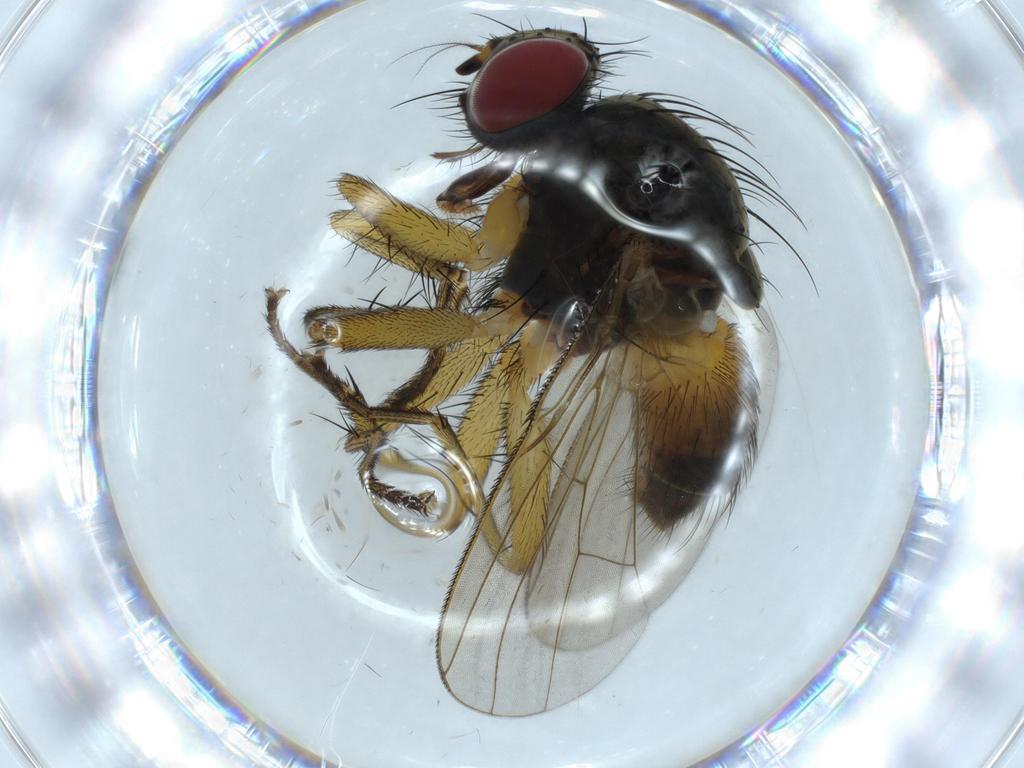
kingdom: Animalia
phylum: Arthropoda
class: Insecta
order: Diptera
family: Muscidae
